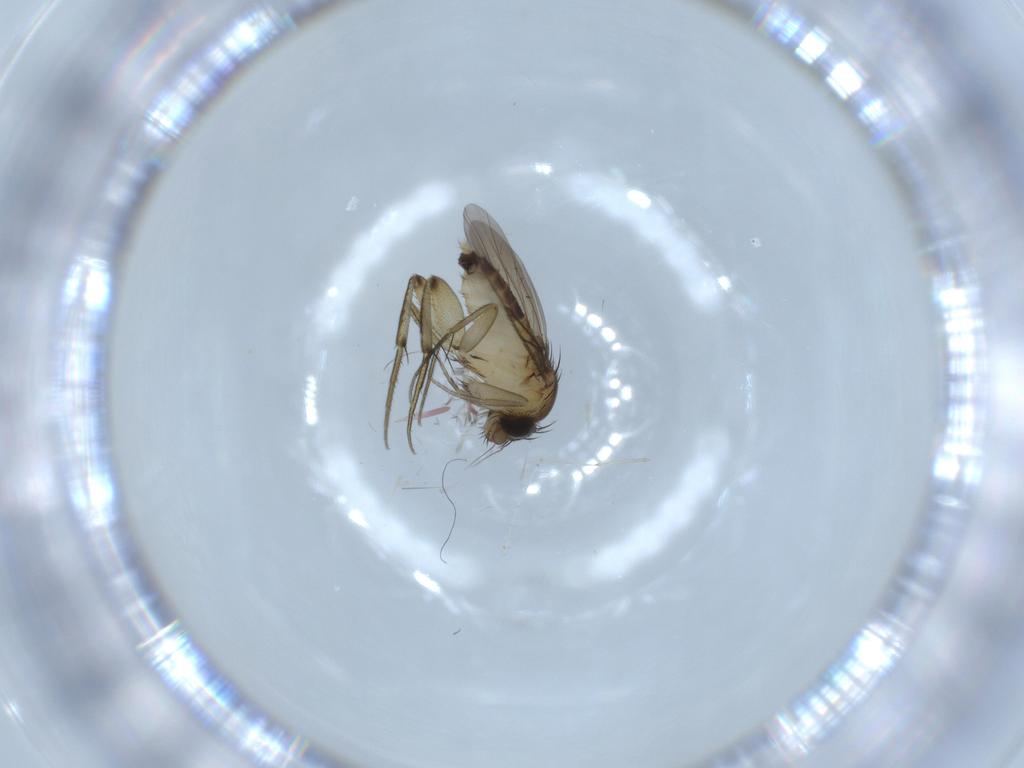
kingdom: Animalia
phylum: Arthropoda
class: Insecta
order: Diptera
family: Phoridae
